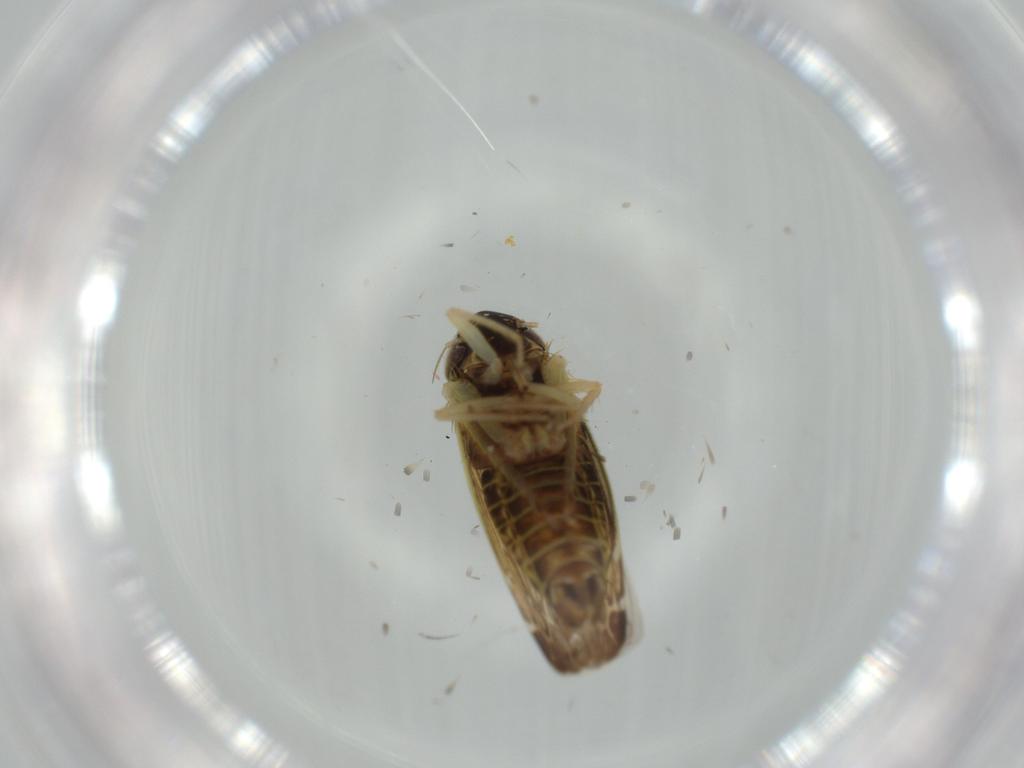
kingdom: Animalia
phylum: Arthropoda
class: Insecta
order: Hemiptera
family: Cicadellidae
